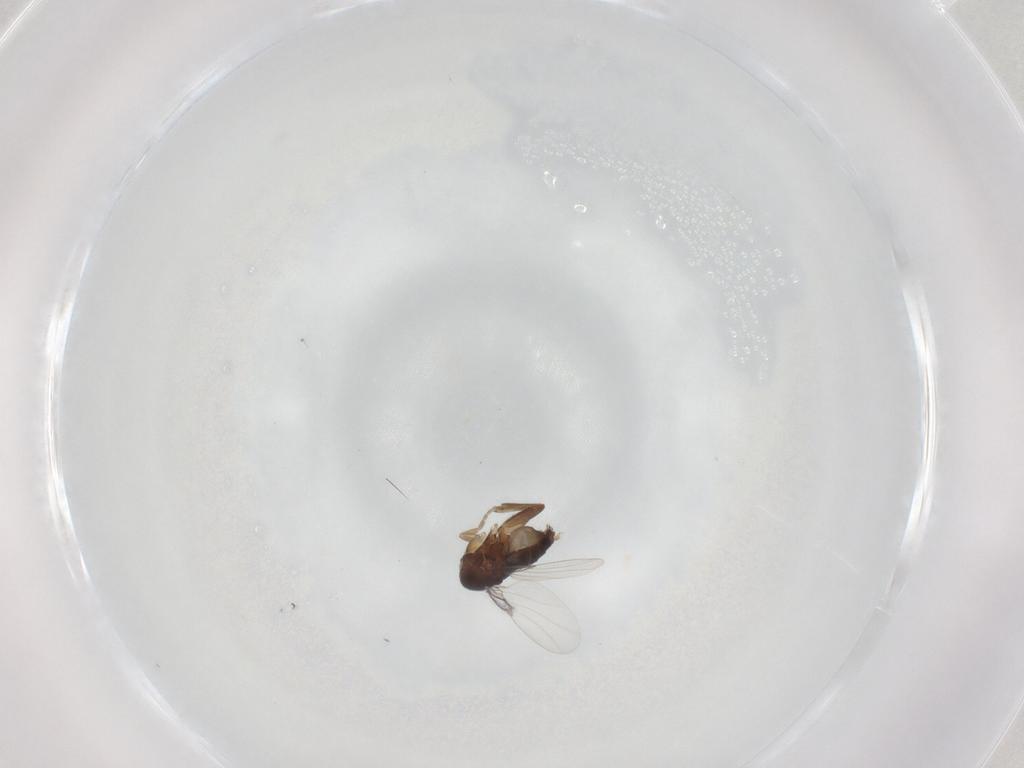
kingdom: Animalia
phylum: Arthropoda
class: Insecta
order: Diptera
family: Phoridae
